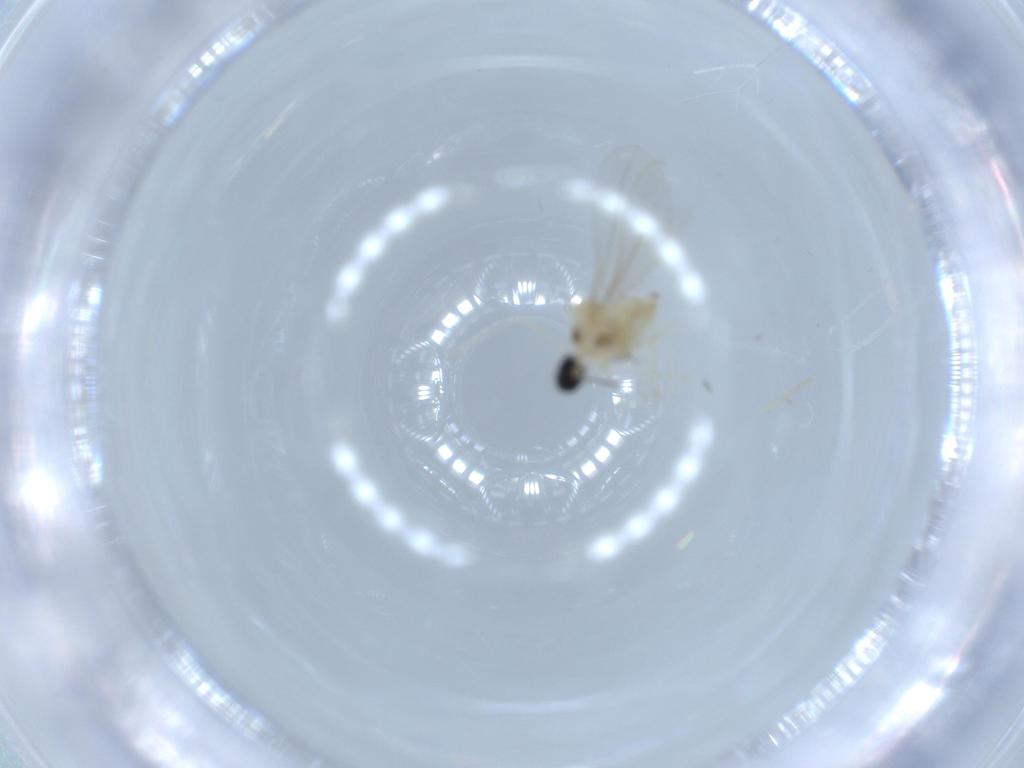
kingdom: Animalia
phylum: Arthropoda
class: Insecta
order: Diptera
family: Cecidomyiidae
